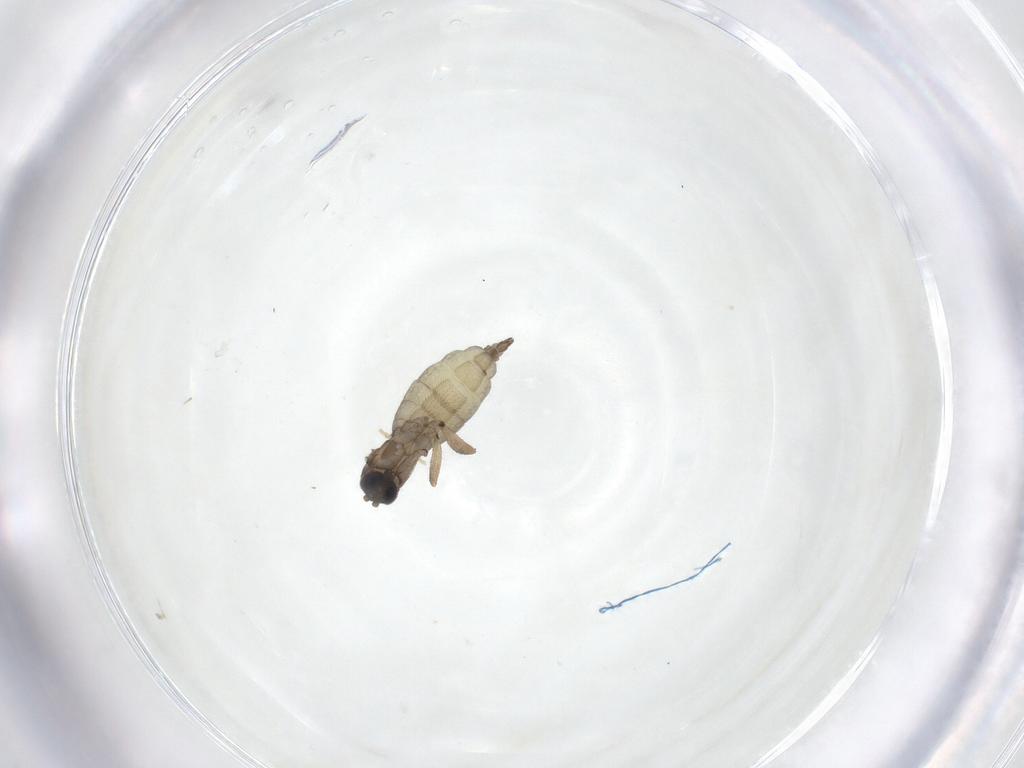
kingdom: Animalia
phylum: Arthropoda
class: Insecta
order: Diptera
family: Sciaridae
